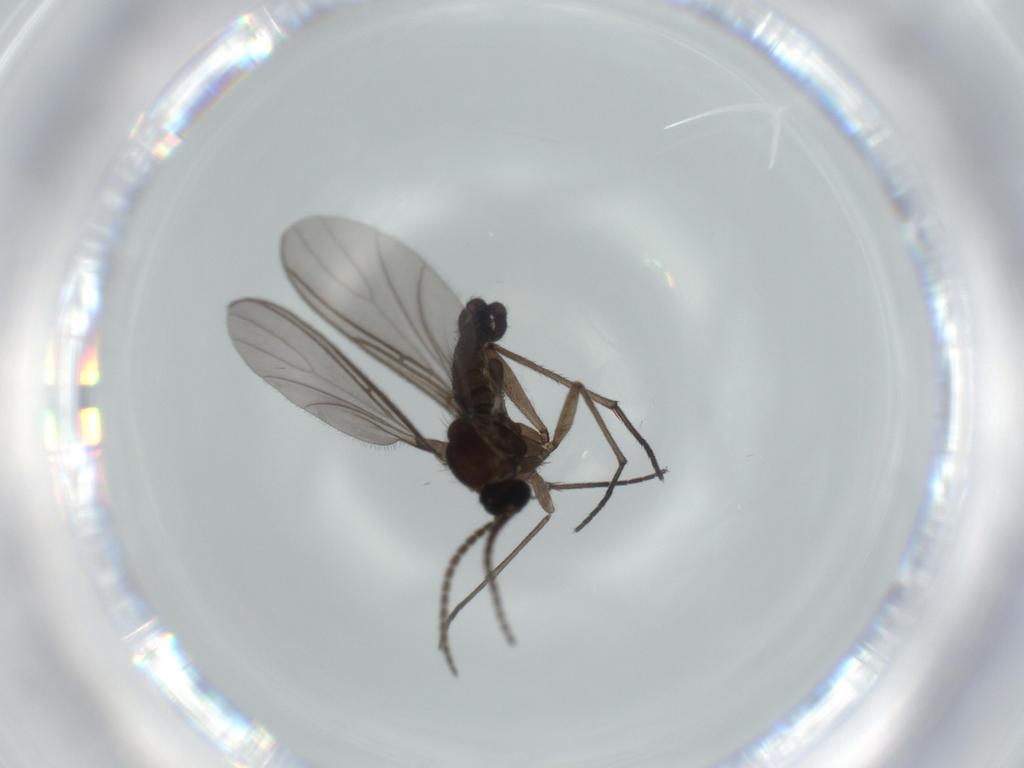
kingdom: Animalia
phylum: Arthropoda
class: Insecta
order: Diptera
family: Sciaridae
